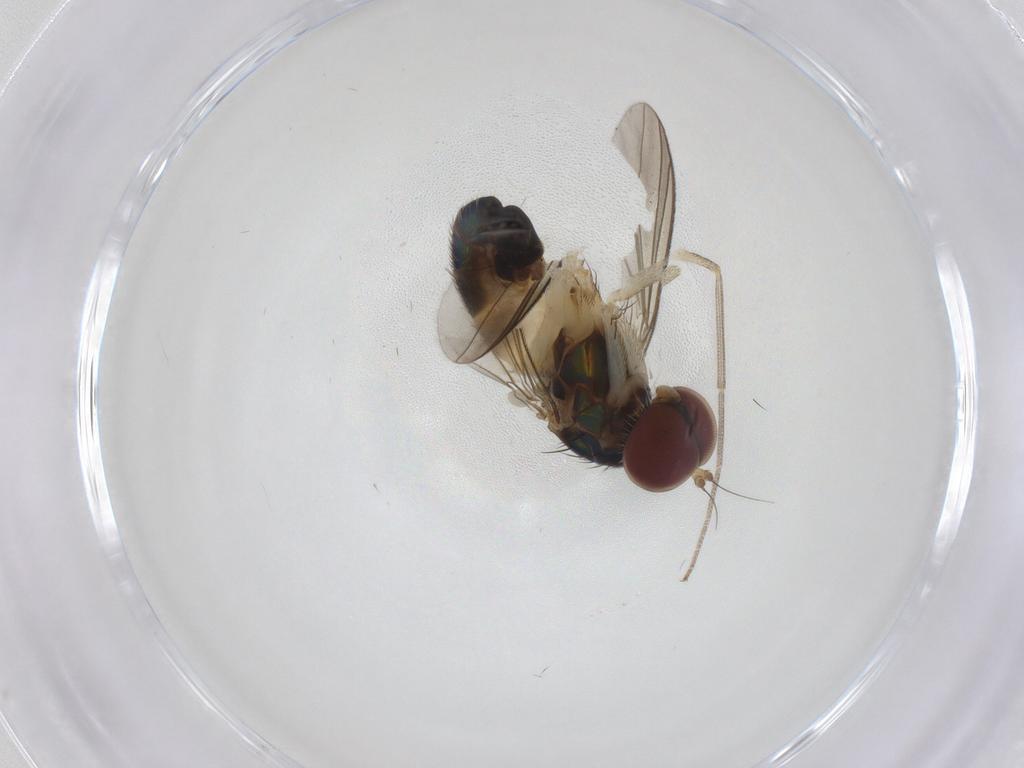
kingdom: Animalia
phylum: Arthropoda
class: Insecta
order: Diptera
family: Dolichopodidae
